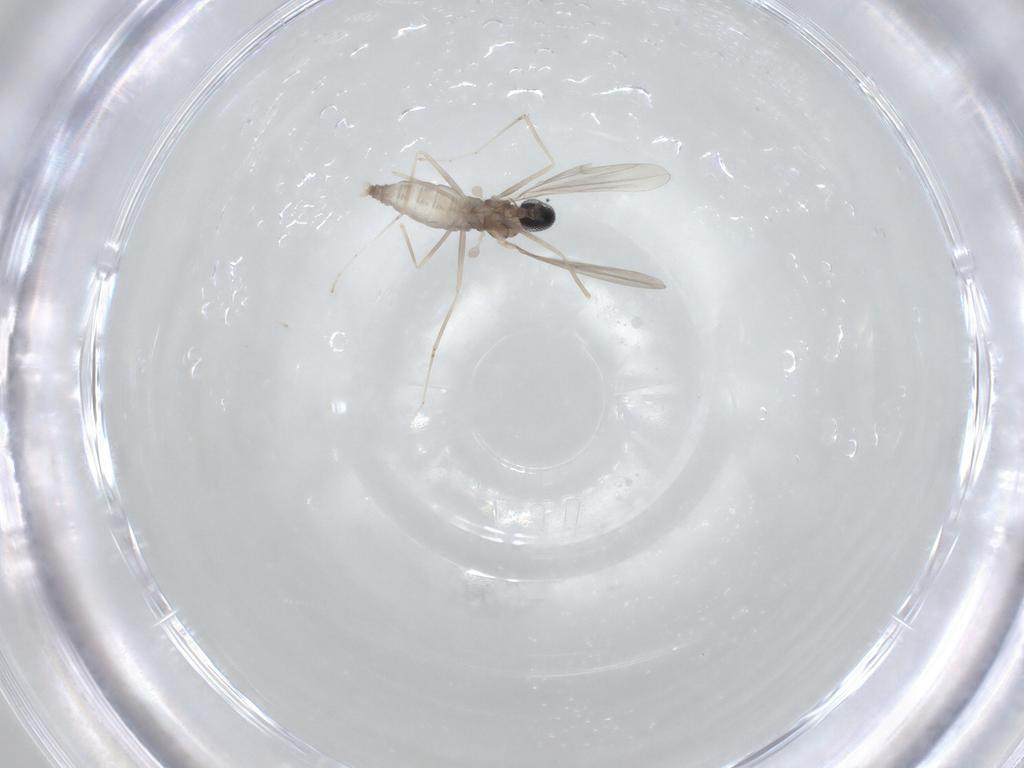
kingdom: Animalia
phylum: Arthropoda
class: Insecta
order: Diptera
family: Cecidomyiidae
